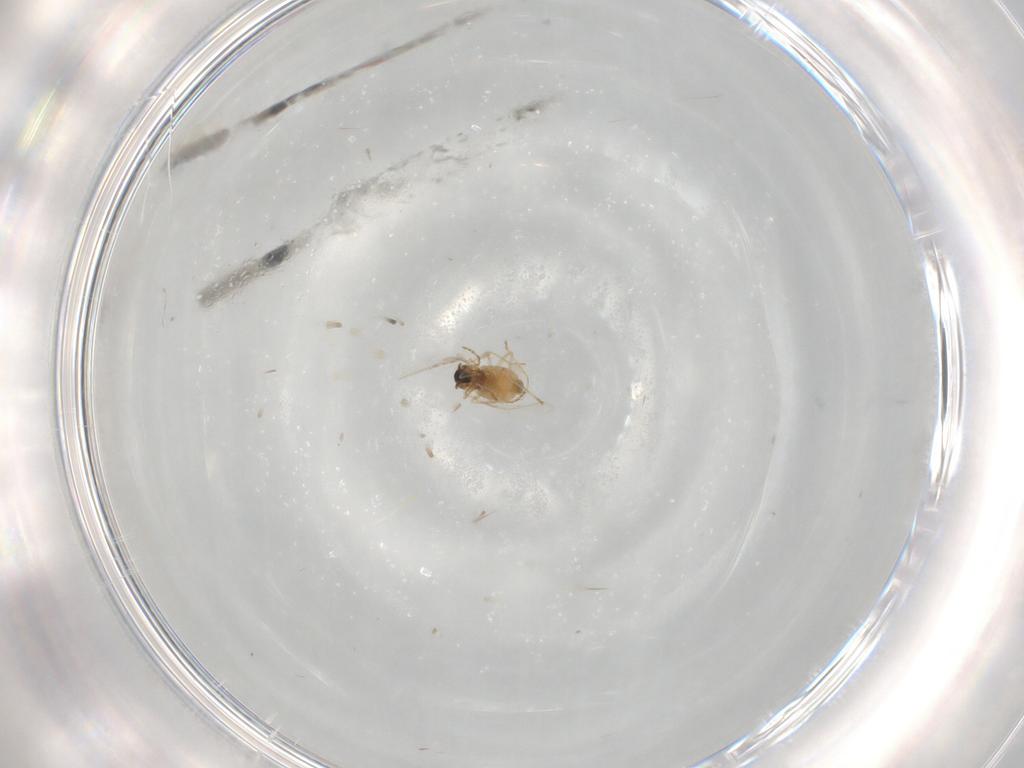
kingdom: Animalia
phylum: Arthropoda
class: Insecta
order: Diptera
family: Cecidomyiidae
